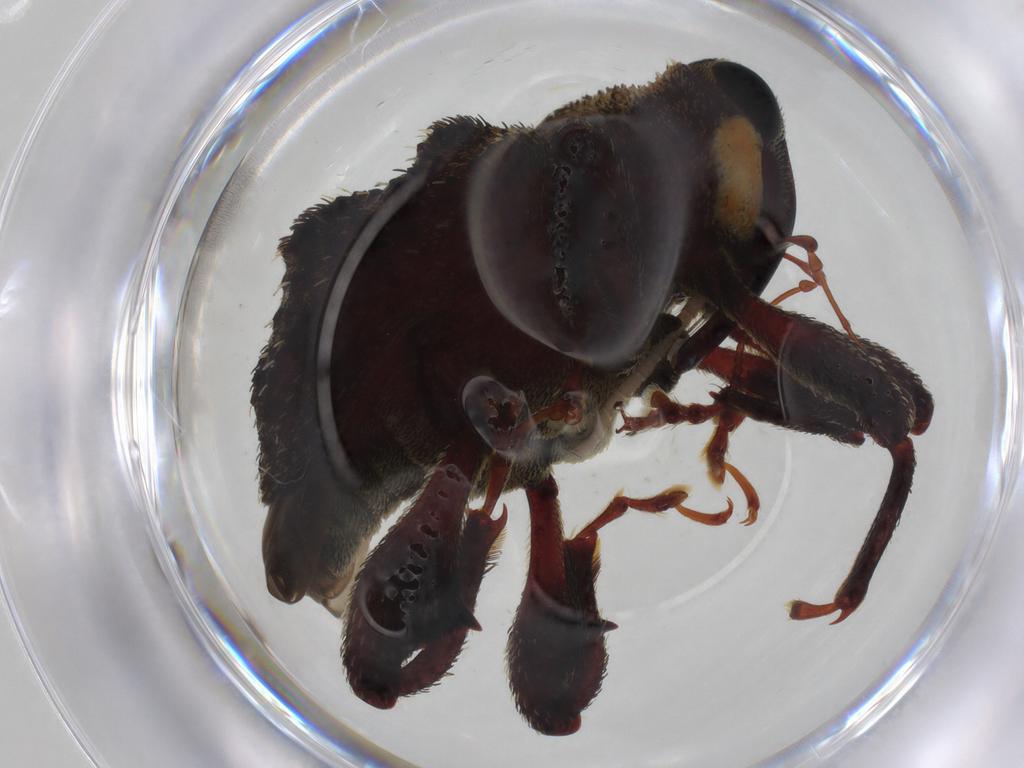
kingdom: Animalia
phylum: Arthropoda
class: Insecta
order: Coleoptera
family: Curculionidae
